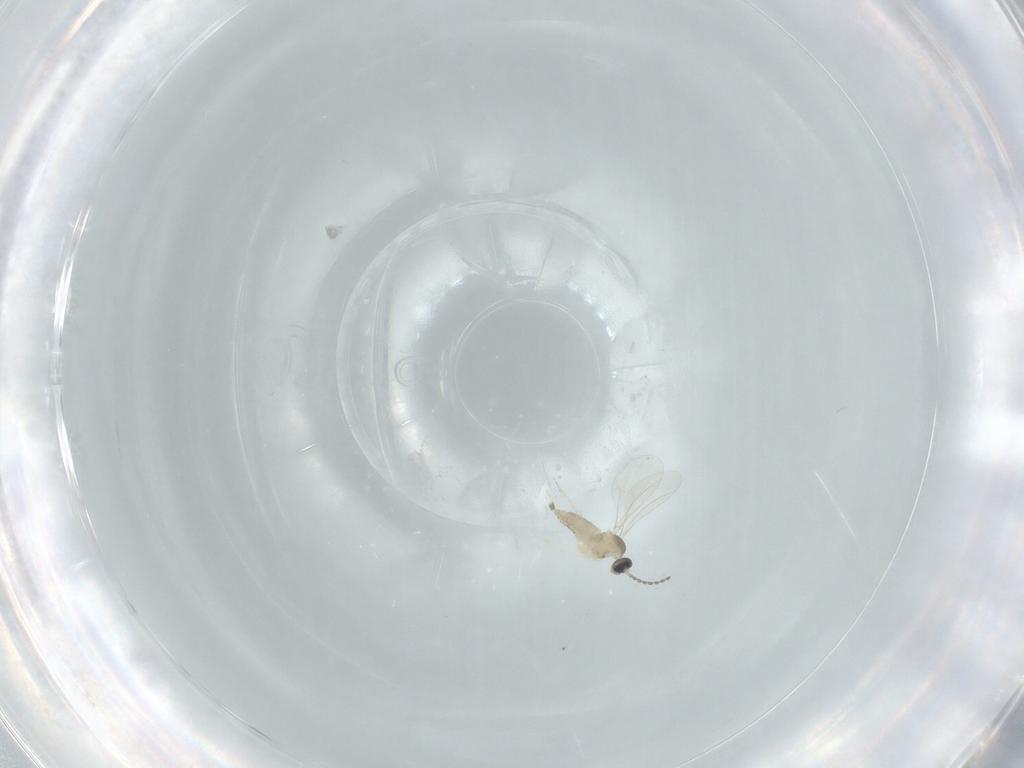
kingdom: Animalia
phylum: Arthropoda
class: Insecta
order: Diptera
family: Cecidomyiidae
